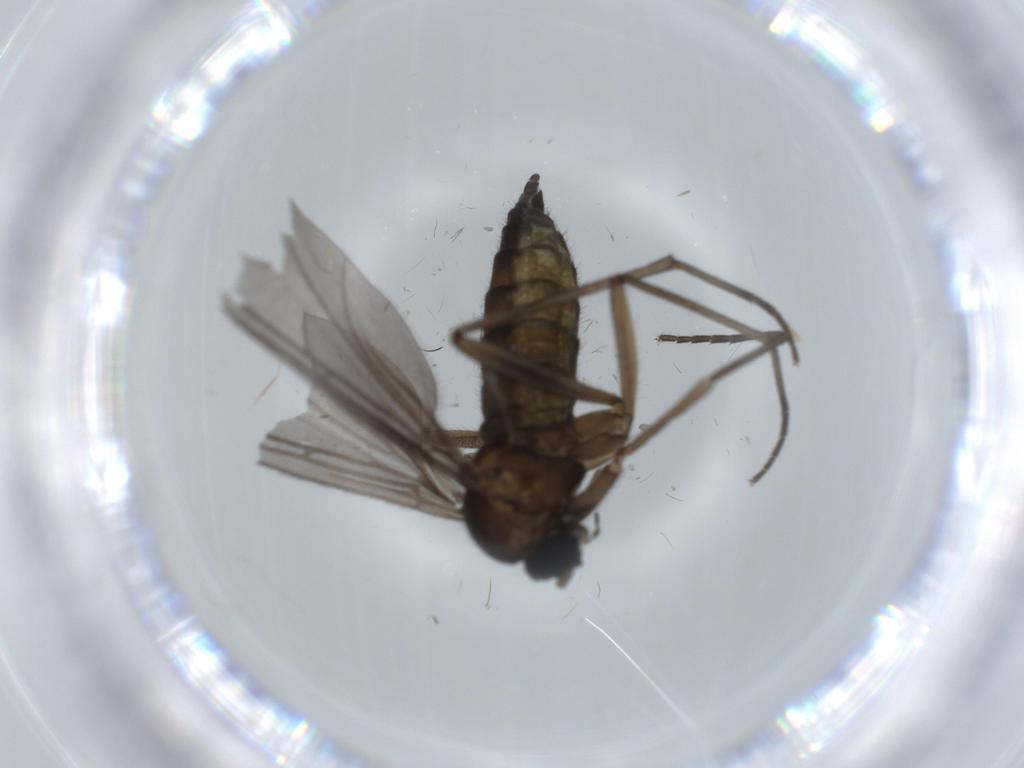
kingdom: Animalia
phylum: Arthropoda
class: Insecta
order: Diptera
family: Sciaridae
